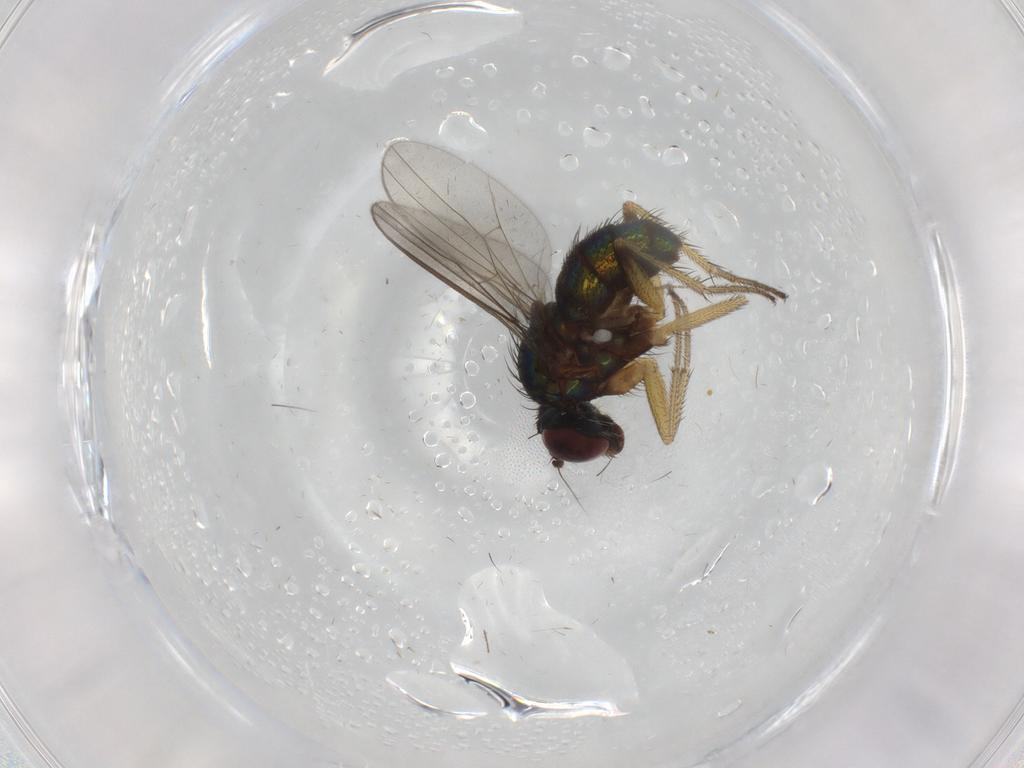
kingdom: Animalia
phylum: Arthropoda
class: Insecta
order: Diptera
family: Dolichopodidae
